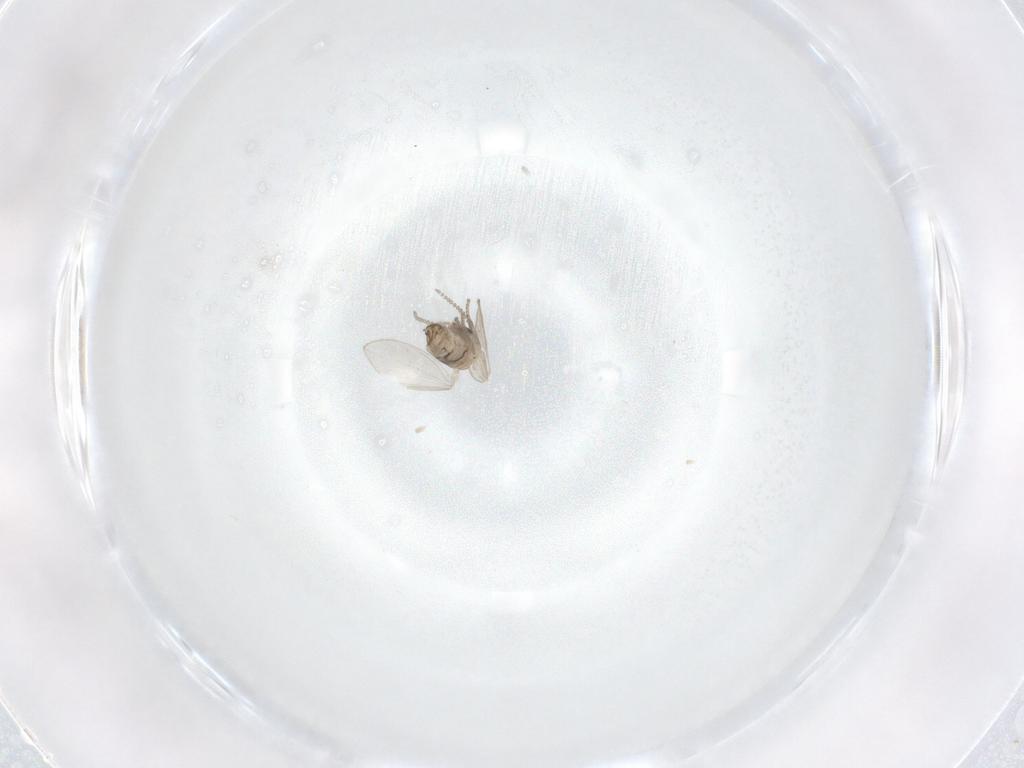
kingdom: Animalia
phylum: Arthropoda
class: Insecta
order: Diptera
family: Psychodidae
